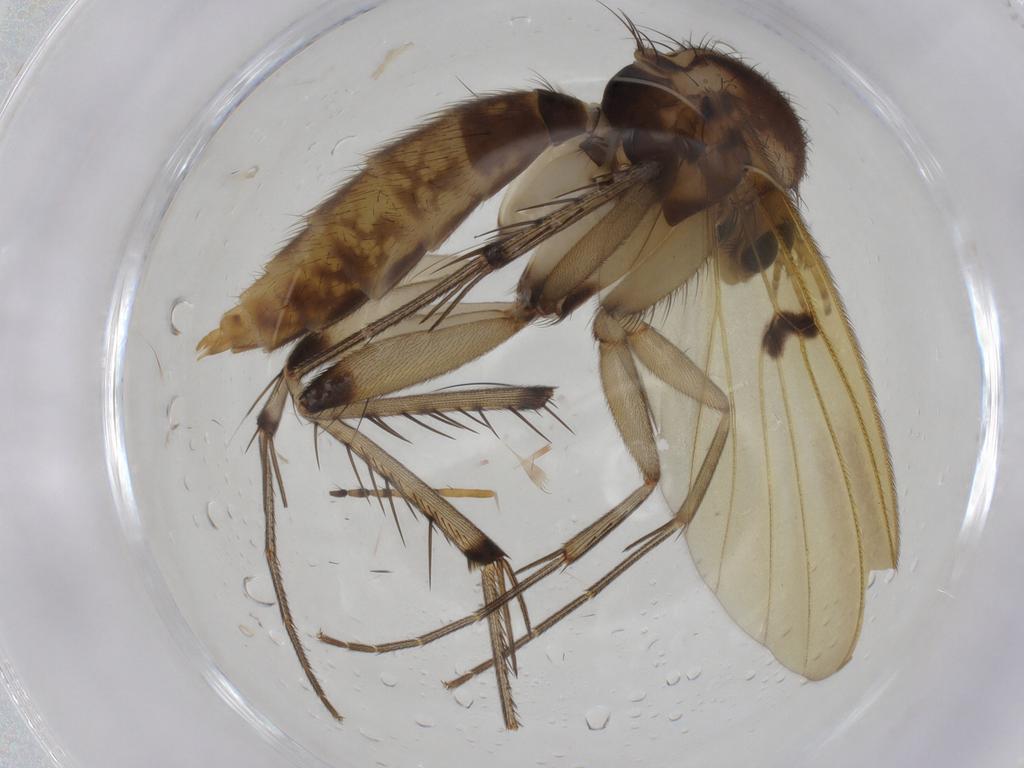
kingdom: Animalia
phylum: Arthropoda
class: Insecta
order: Diptera
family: Mycetophilidae
